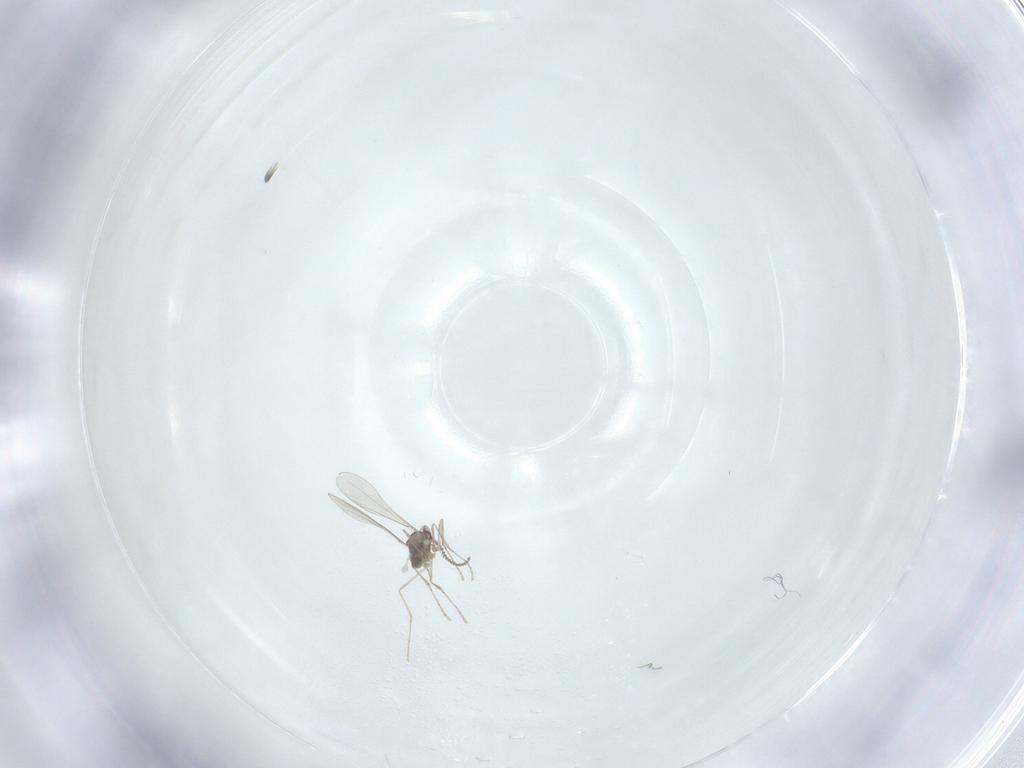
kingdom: Animalia
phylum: Arthropoda
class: Insecta
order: Diptera
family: Cecidomyiidae
